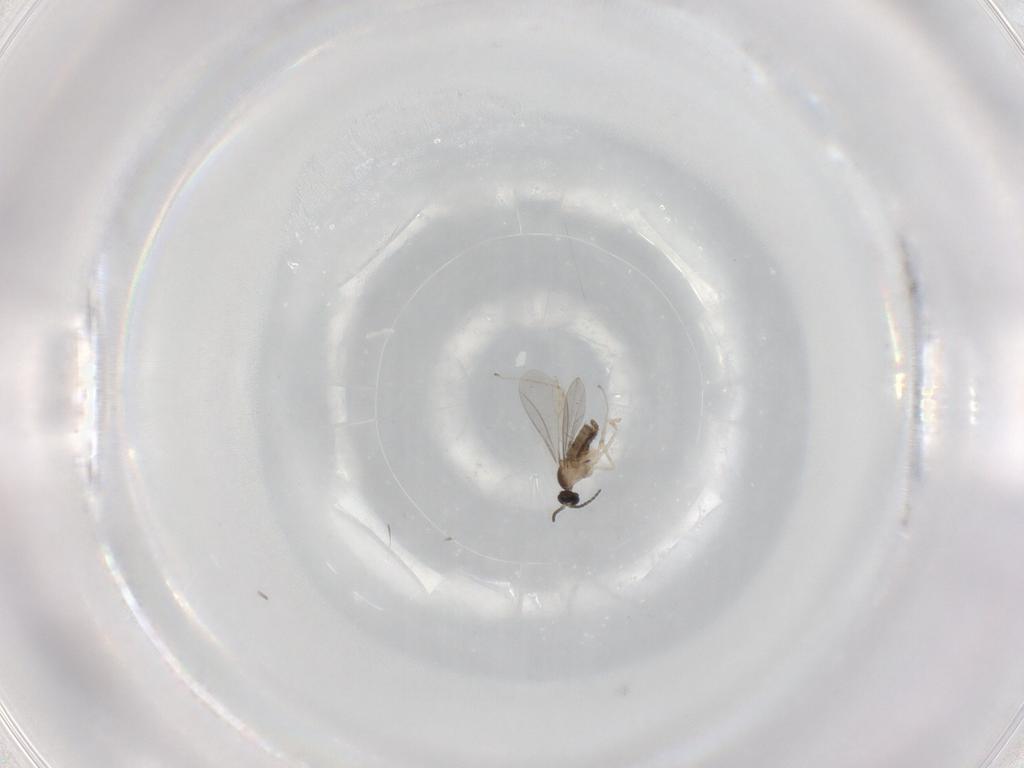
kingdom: Animalia
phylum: Arthropoda
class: Insecta
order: Diptera
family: Cecidomyiidae
